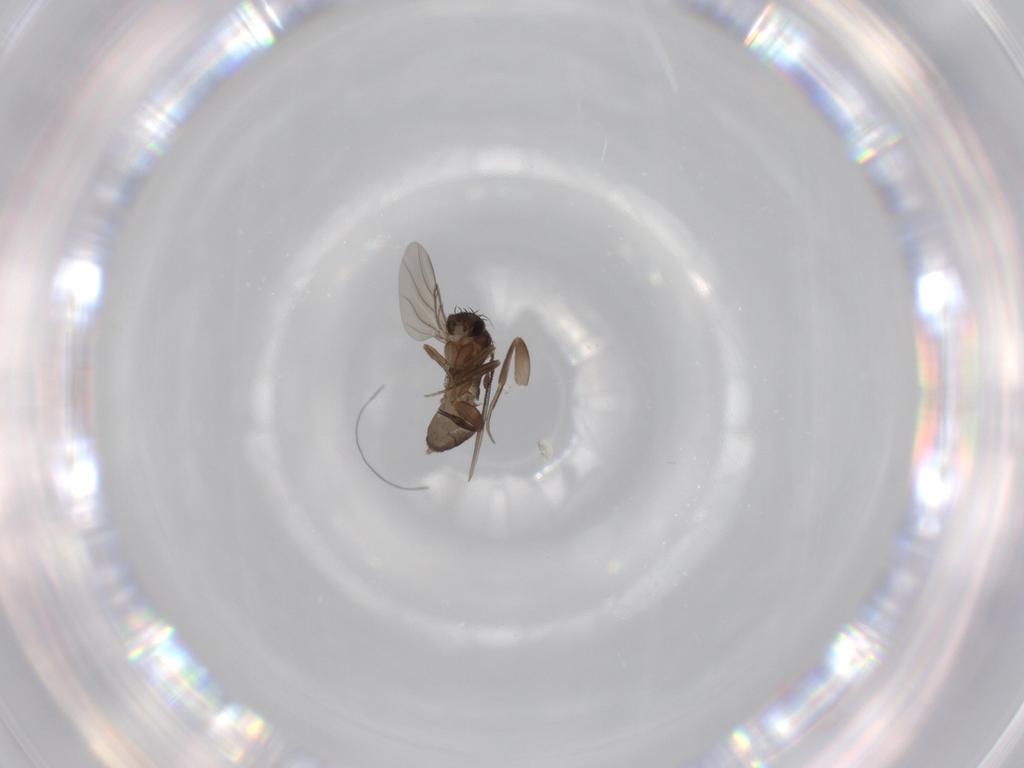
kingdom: Animalia
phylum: Arthropoda
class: Insecta
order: Diptera
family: Cecidomyiidae
